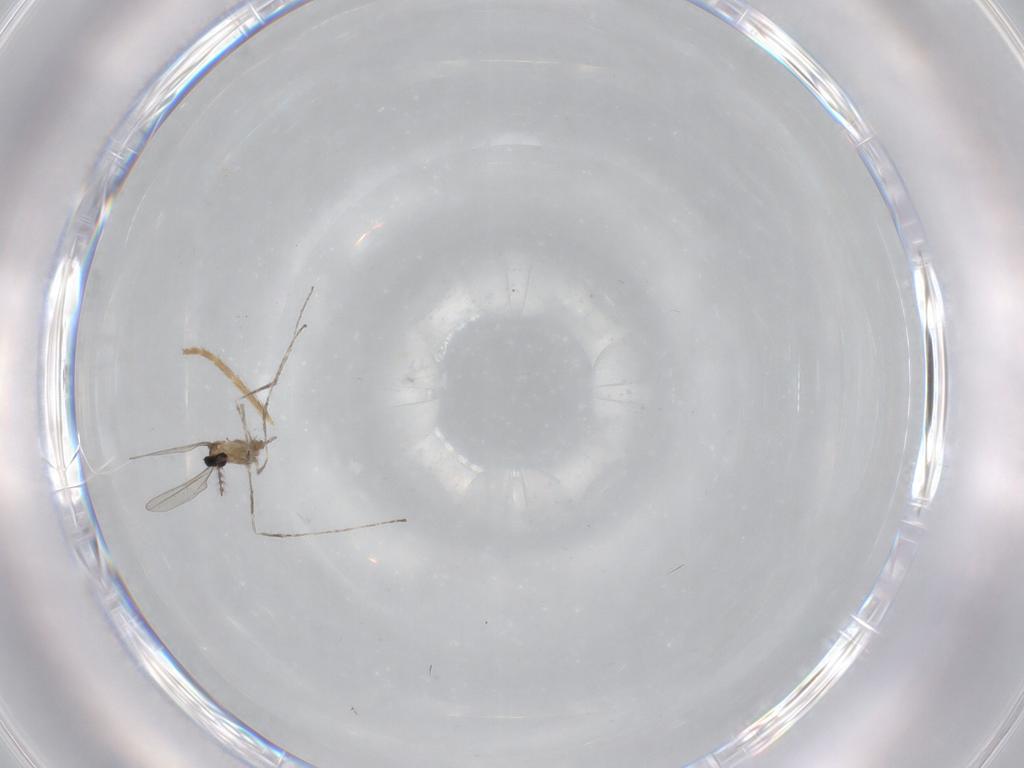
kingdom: Animalia
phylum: Arthropoda
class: Insecta
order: Diptera
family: Cecidomyiidae
